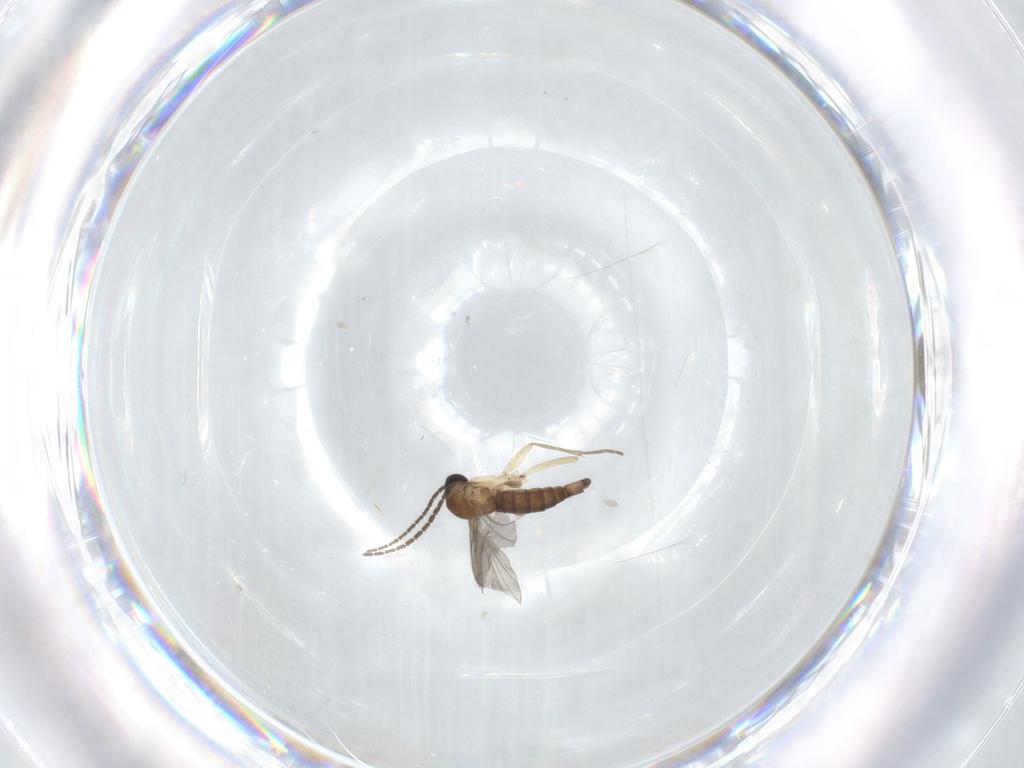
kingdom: Animalia
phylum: Arthropoda
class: Insecta
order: Diptera
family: Sciaridae
